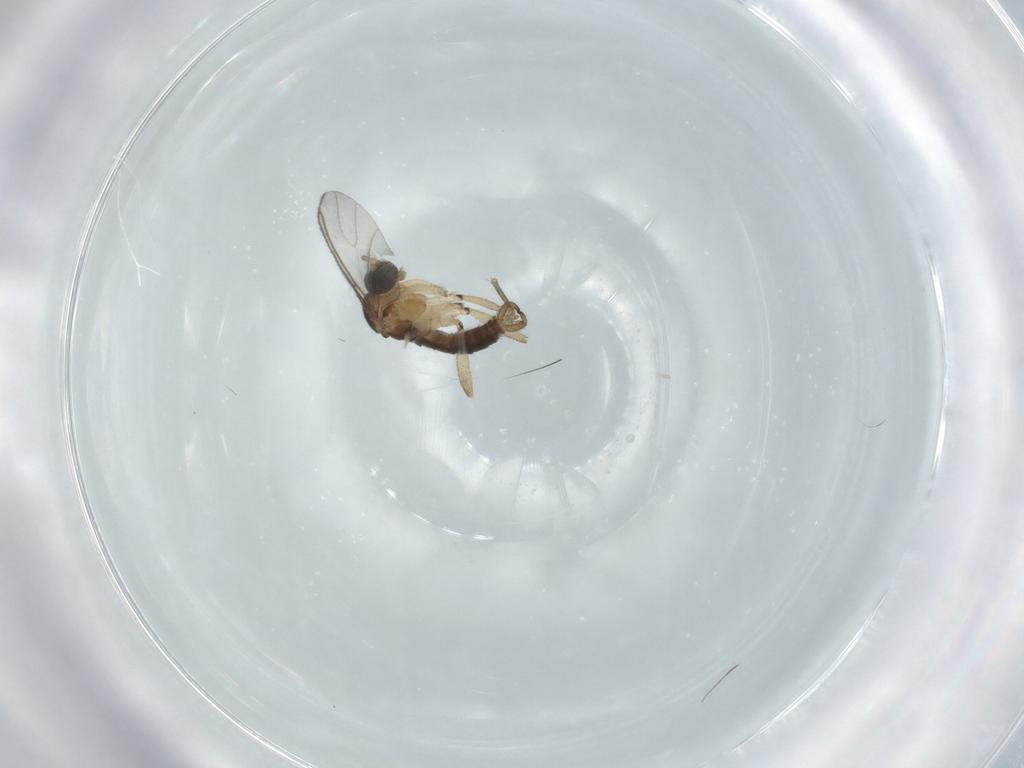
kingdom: Animalia
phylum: Arthropoda
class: Insecta
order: Diptera
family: Sciaridae
